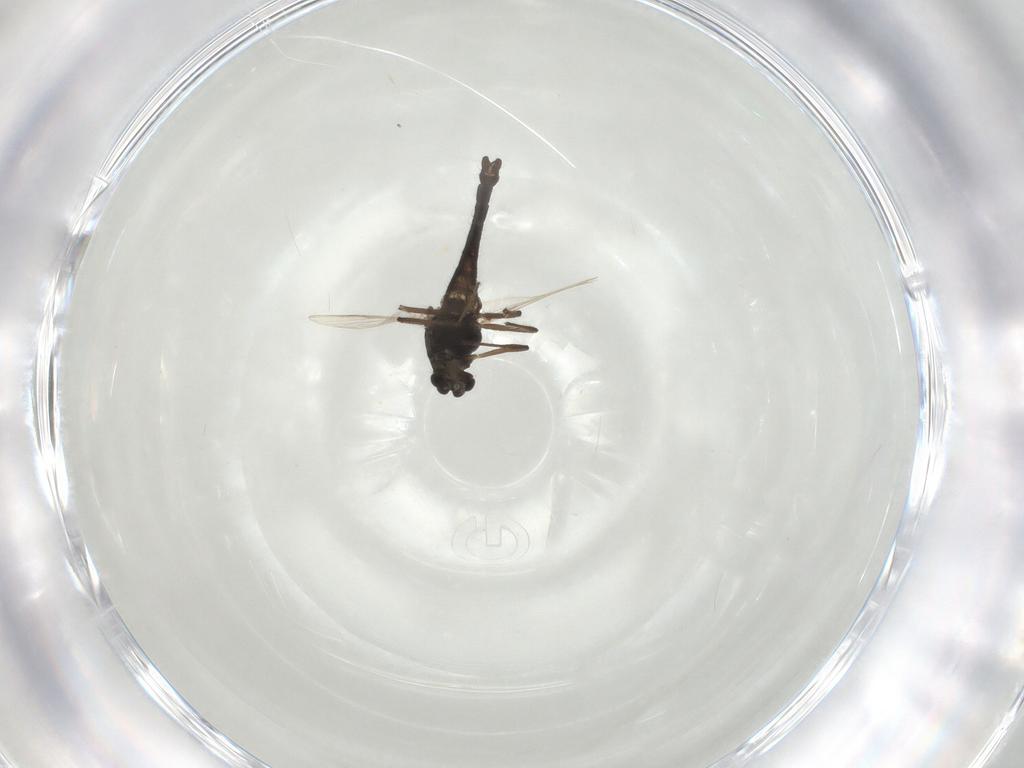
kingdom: Animalia
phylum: Arthropoda
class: Insecta
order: Diptera
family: Chironomidae
